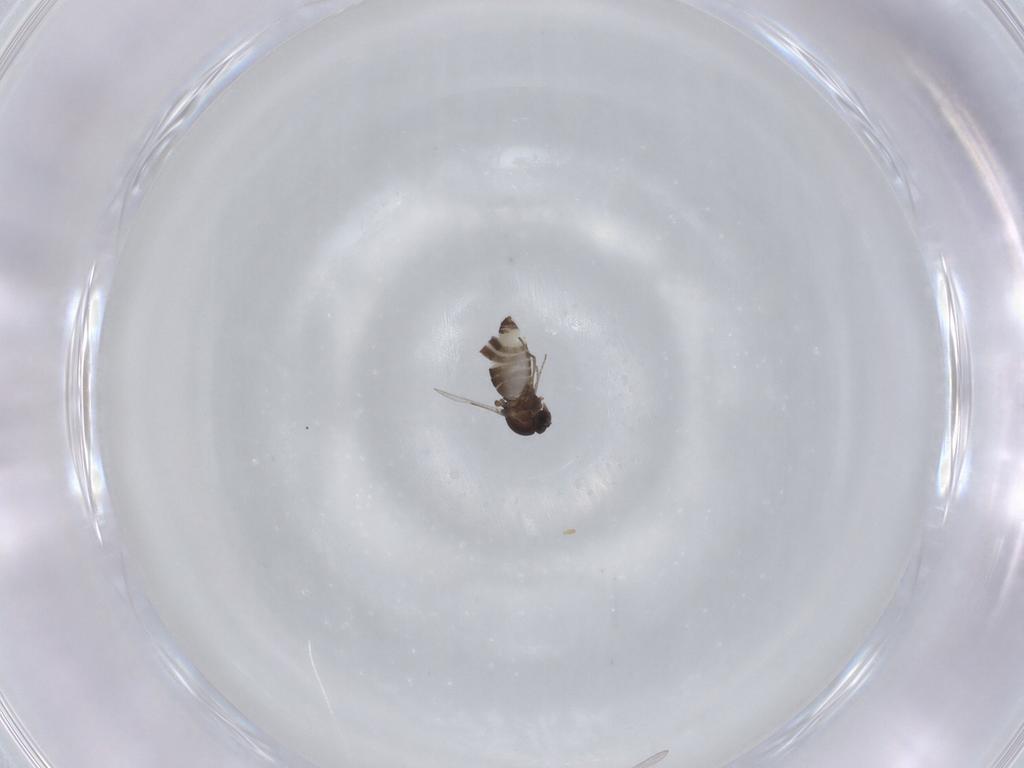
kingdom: Animalia
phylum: Arthropoda
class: Insecta
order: Diptera
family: Ceratopogonidae
